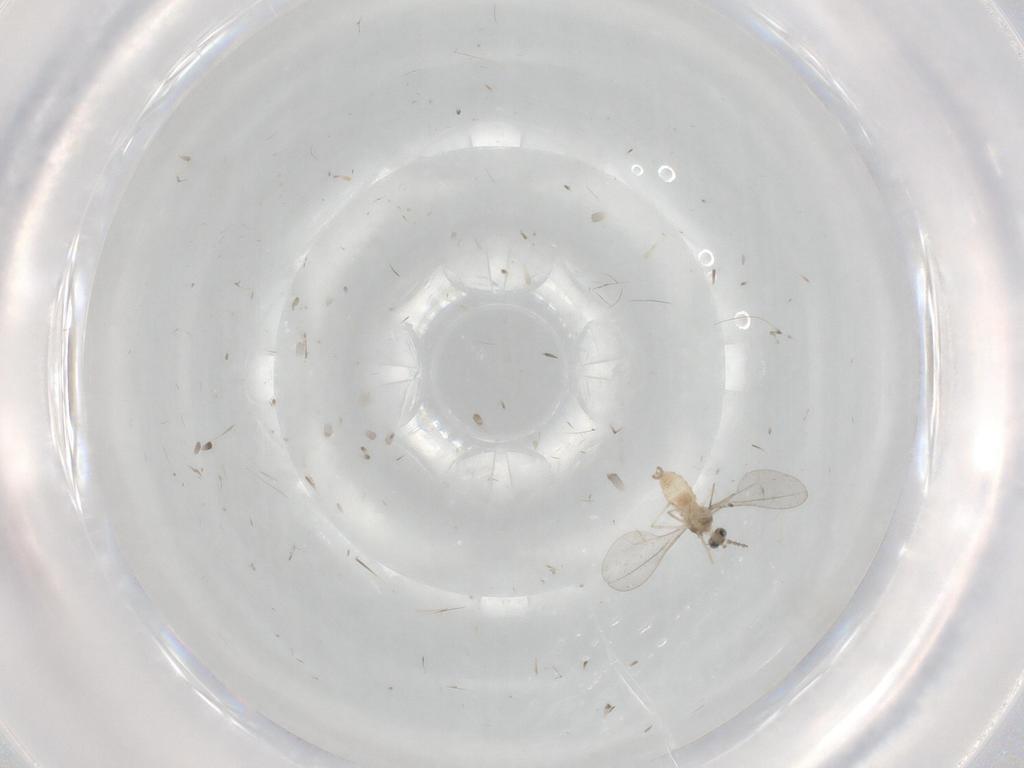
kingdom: Animalia
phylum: Arthropoda
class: Insecta
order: Diptera
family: Cecidomyiidae
